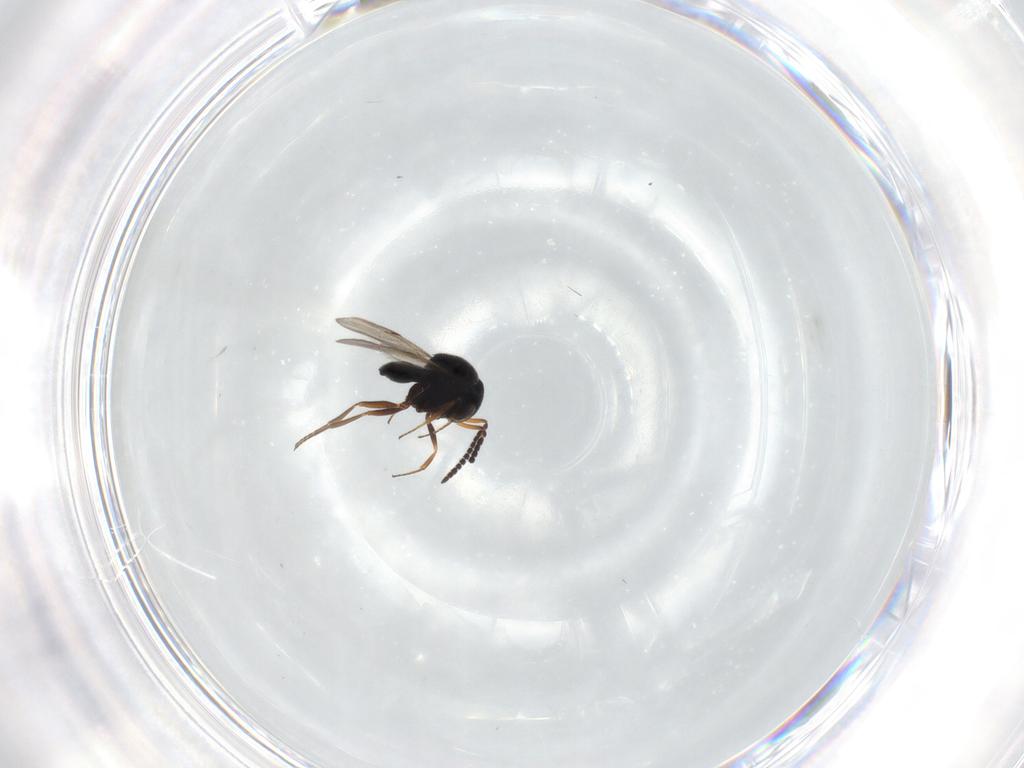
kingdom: Animalia
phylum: Arthropoda
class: Insecta
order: Hymenoptera
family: Scelionidae
